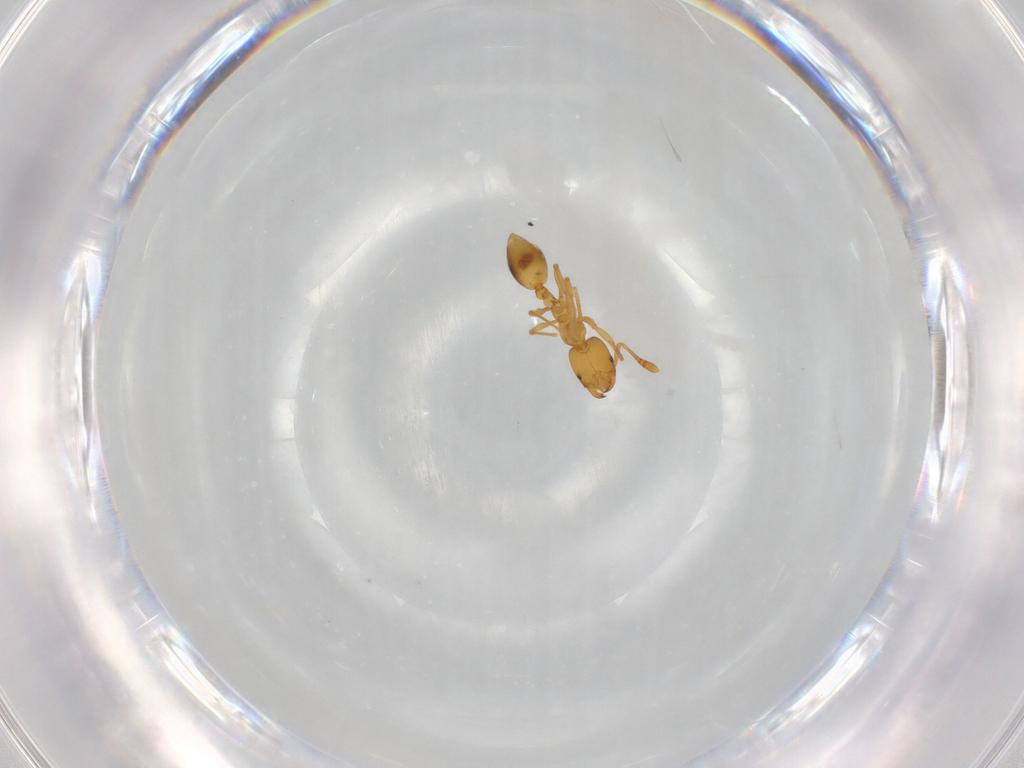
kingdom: Animalia
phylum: Arthropoda
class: Insecta
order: Hymenoptera
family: Formicidae
